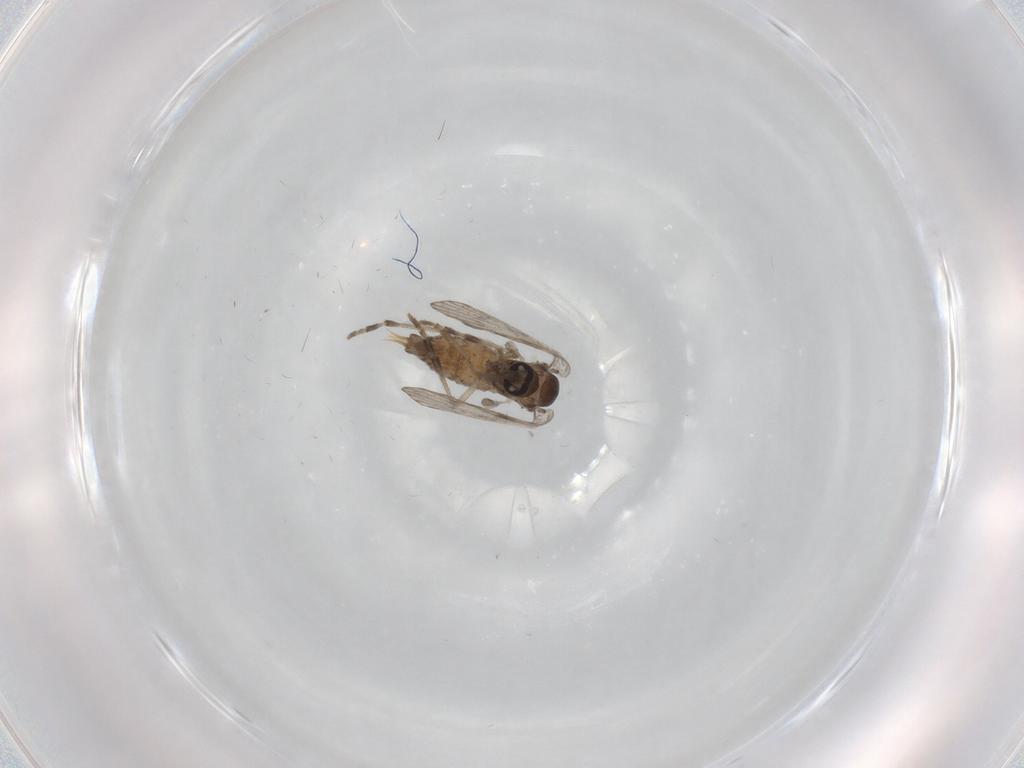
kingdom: Animalia
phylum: Arthropoda
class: Insecta
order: Diptera
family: Psychodidae
